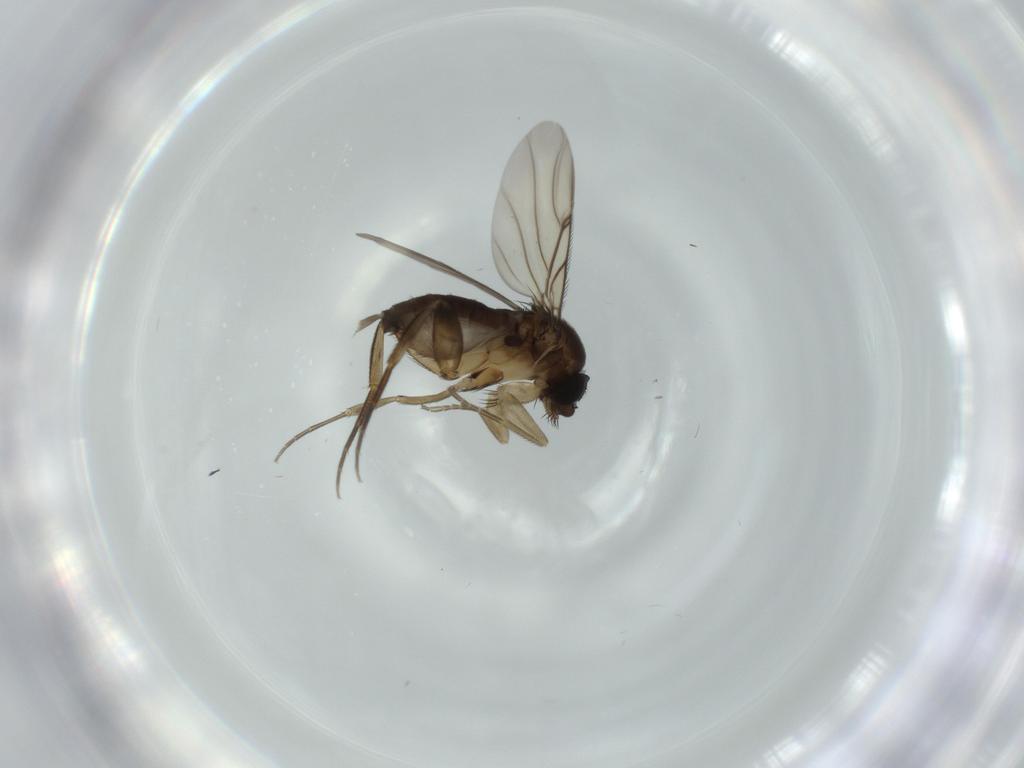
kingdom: Animalia
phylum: Arthropoda
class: Insecta
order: Diptera
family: Phoridae
